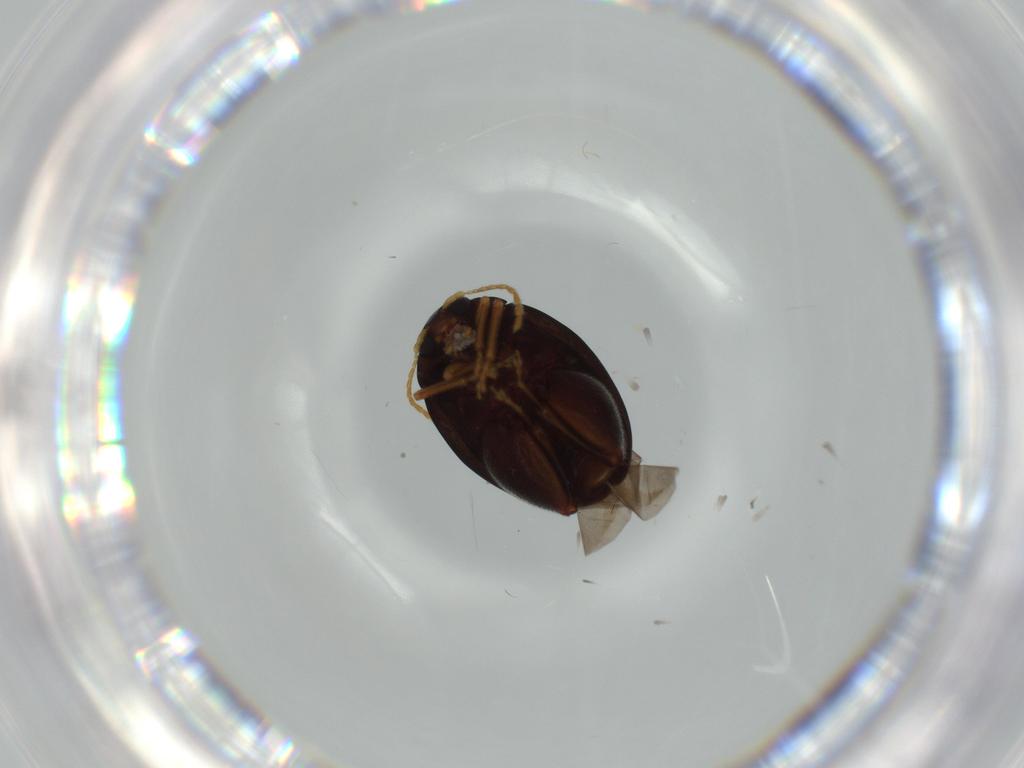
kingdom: Animalia
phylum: Arthropoda
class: Insecta
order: Coleoptera
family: Chrysomelidae
